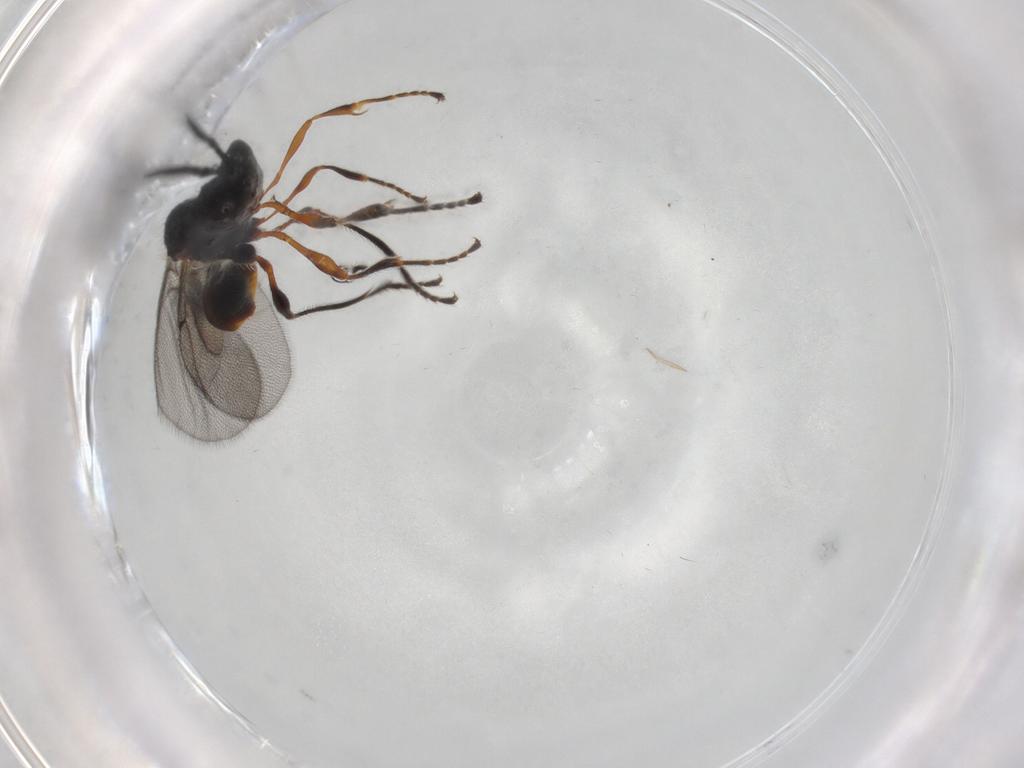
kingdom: Animalia
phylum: Arthropoda
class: Insecta
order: Hymenoptera
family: Diapriidae
